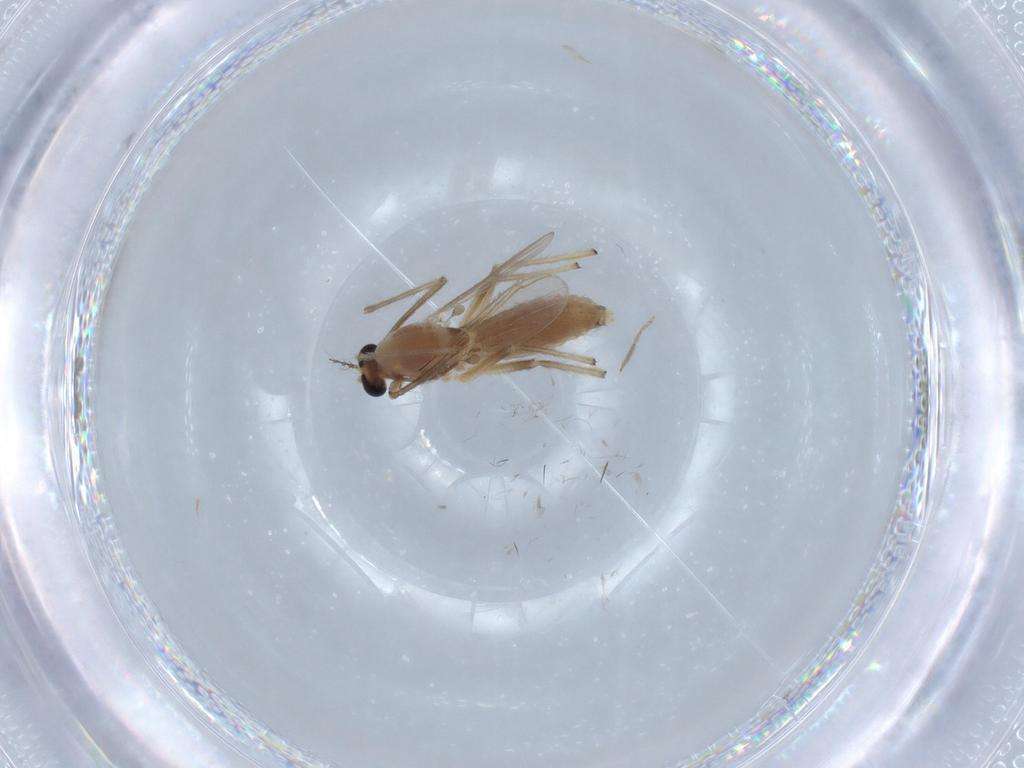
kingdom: Animalia
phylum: Arthropoda
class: Insecta
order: Diptera
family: Chironomidae
